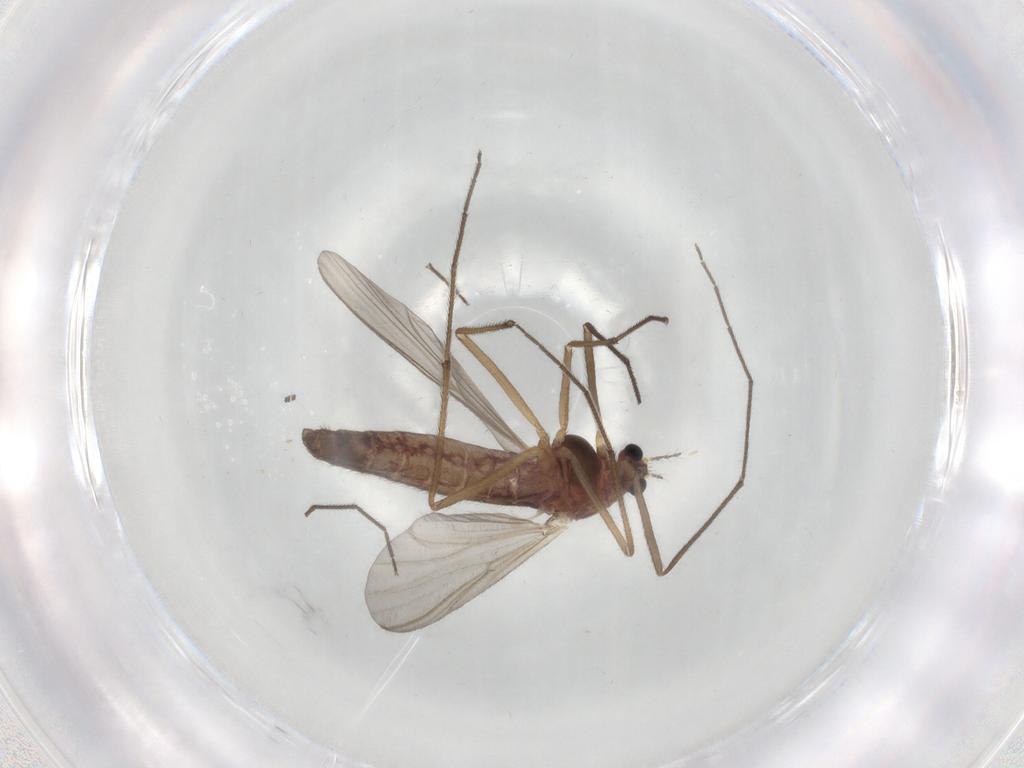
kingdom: Animalia
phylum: Arthropoda
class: Insecta
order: Diptera
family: Chironomidae
